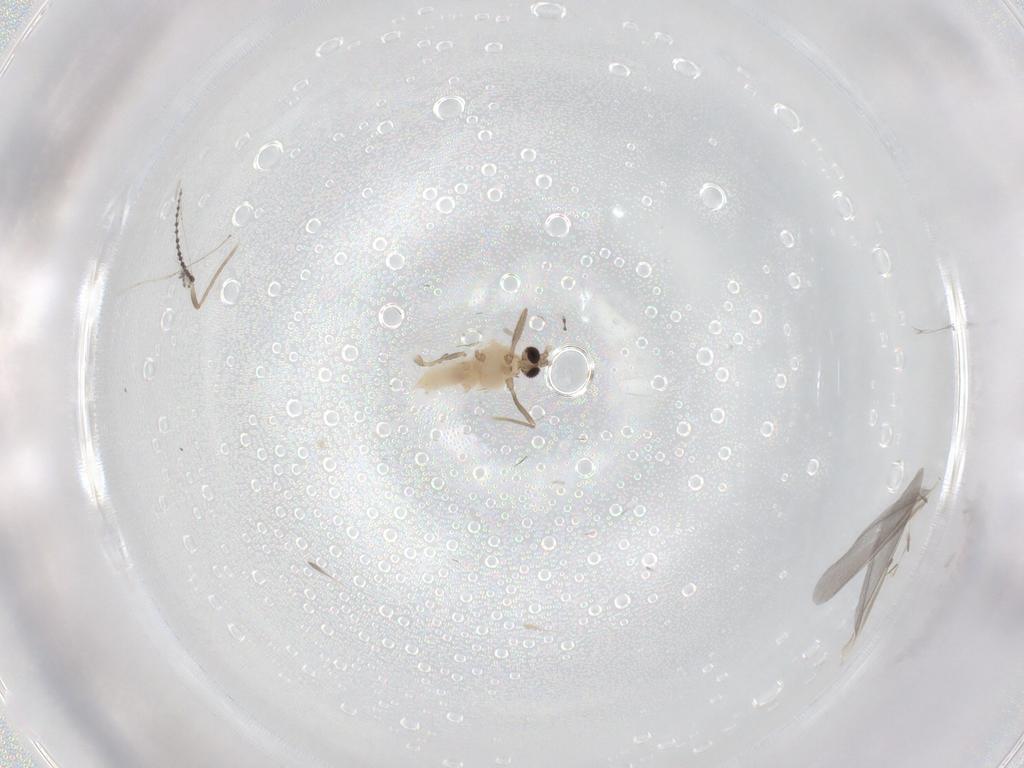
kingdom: Animalia
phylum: Arthropoda
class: Insecta
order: Diptera
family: Cecidomyiidae
